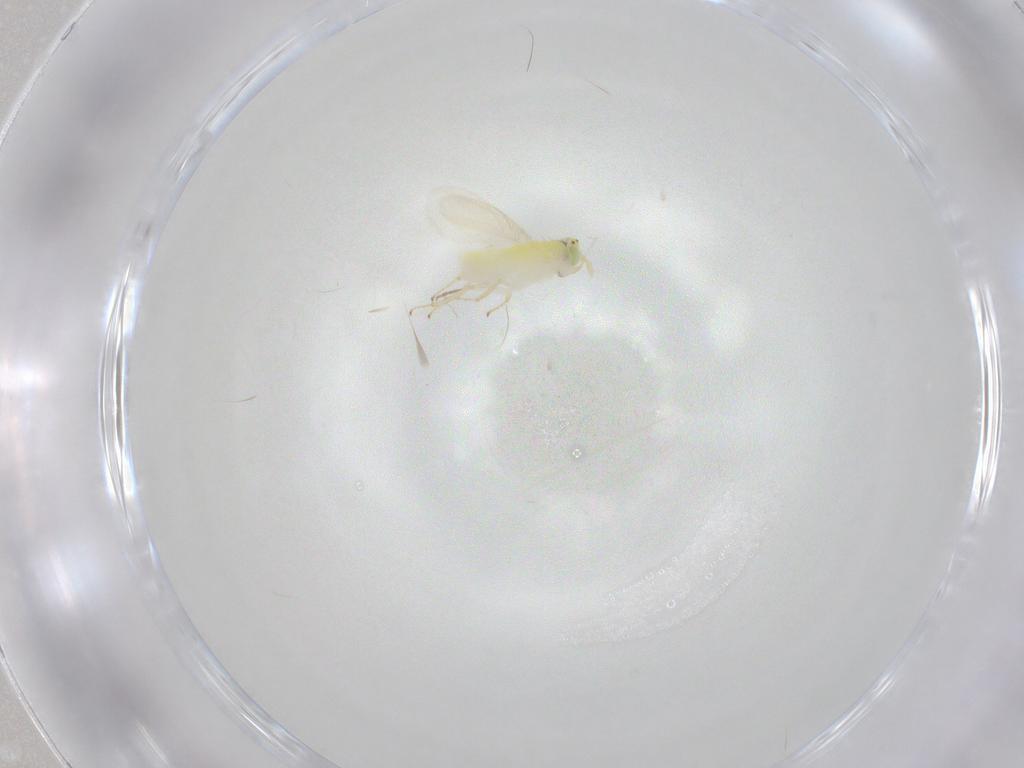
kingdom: Animalia
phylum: Arthropoda
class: Insecta
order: Hymenoptera
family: Aphelinidae
